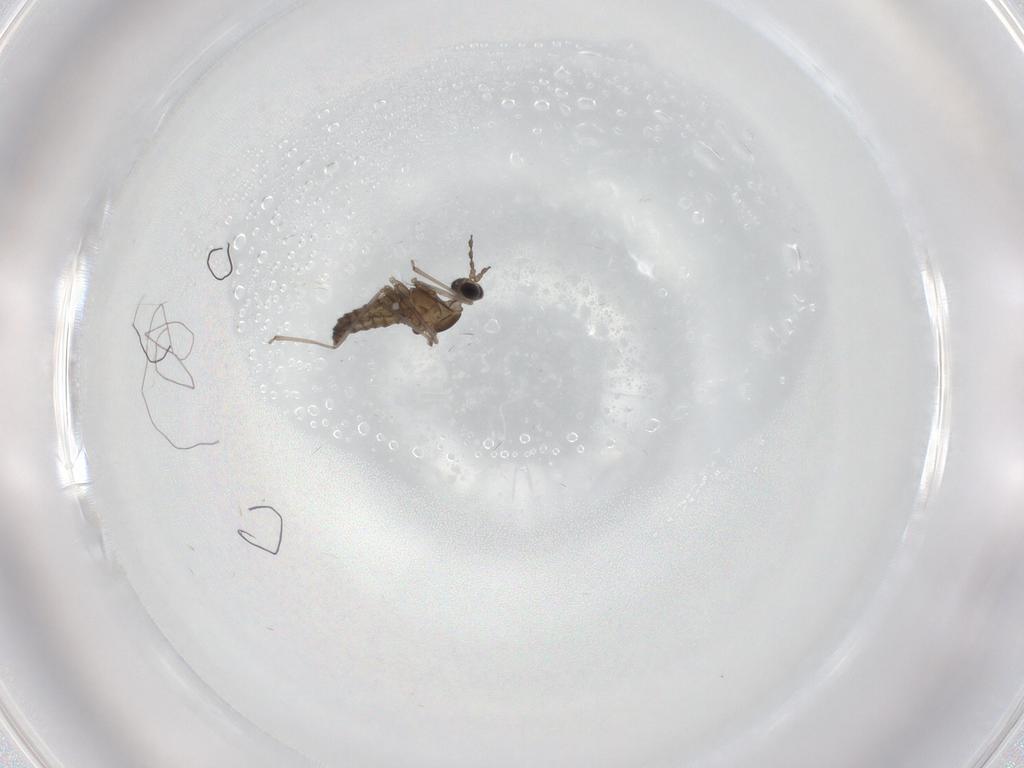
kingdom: Animalia
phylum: Arthropoda
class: Insecta
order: Diptera
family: Cecidomyiidae
